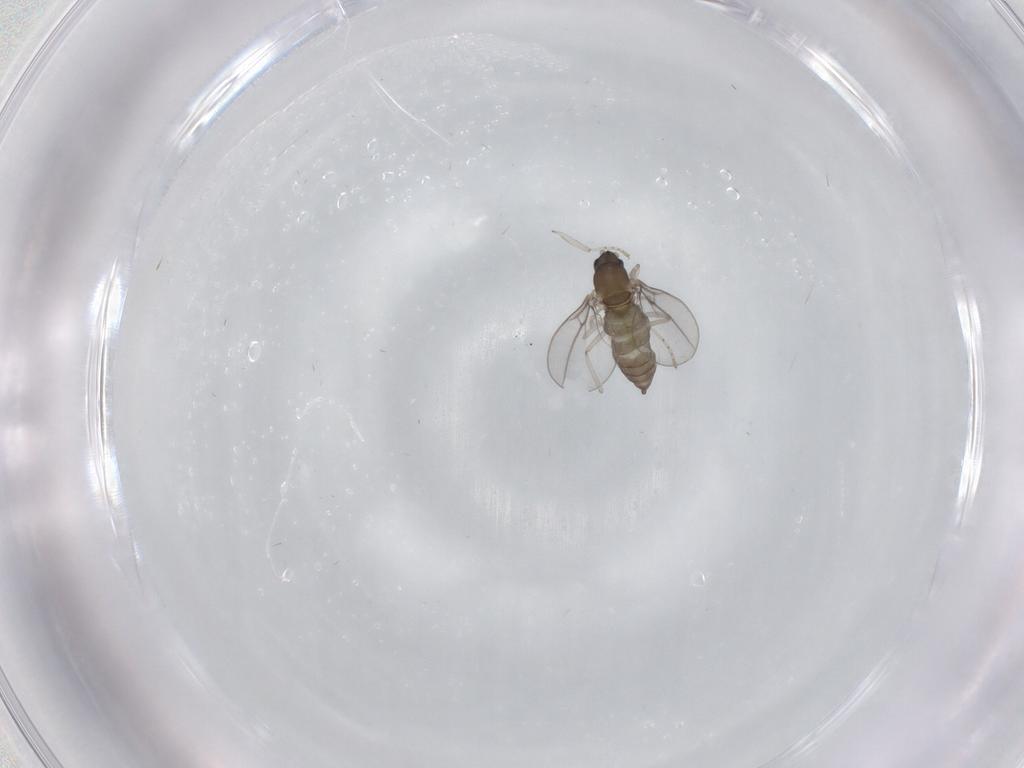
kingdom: Animalia
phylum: Arthropoda
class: Insecta
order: Diptera
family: Cecidomyiidae
